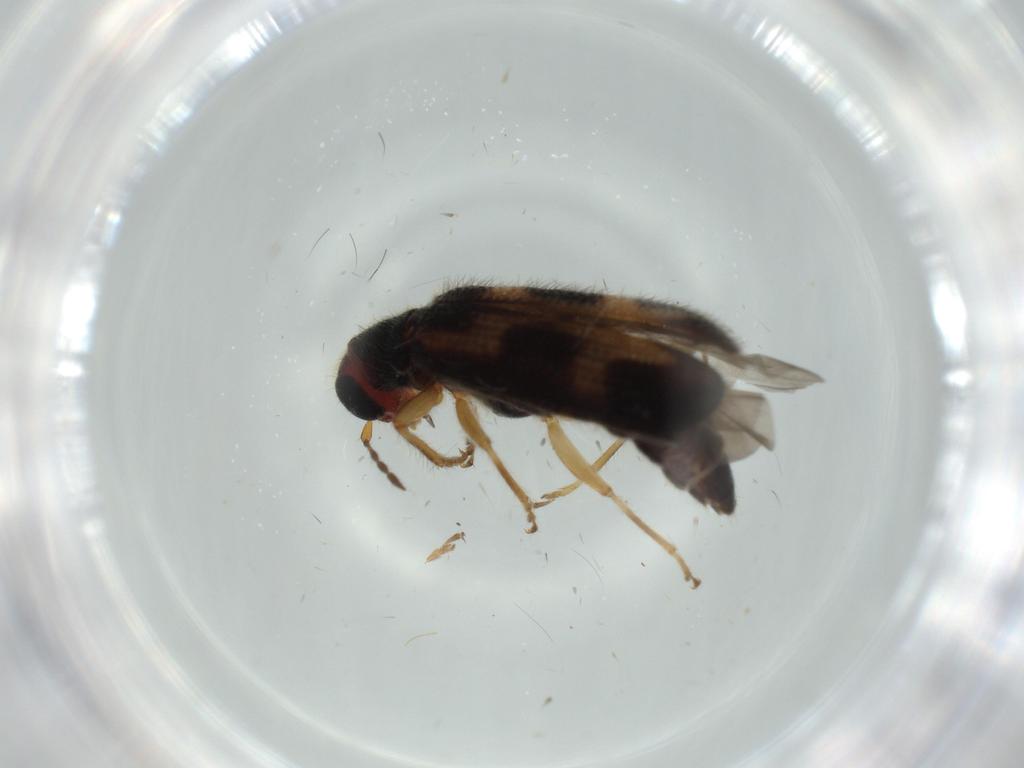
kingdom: Animalia
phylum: Arthropoda
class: Insecta
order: Coleoptera
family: Cleridae
